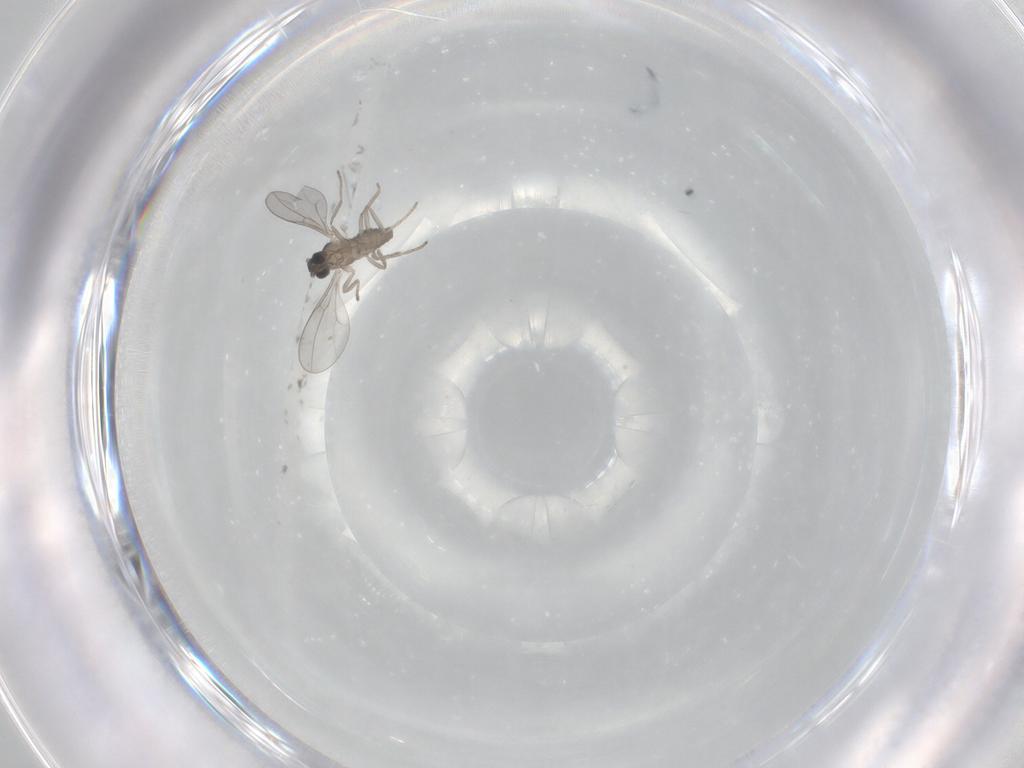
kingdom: Animalia
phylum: Arthropoda
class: Insecta
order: Diptera
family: Cecidomyiidae
